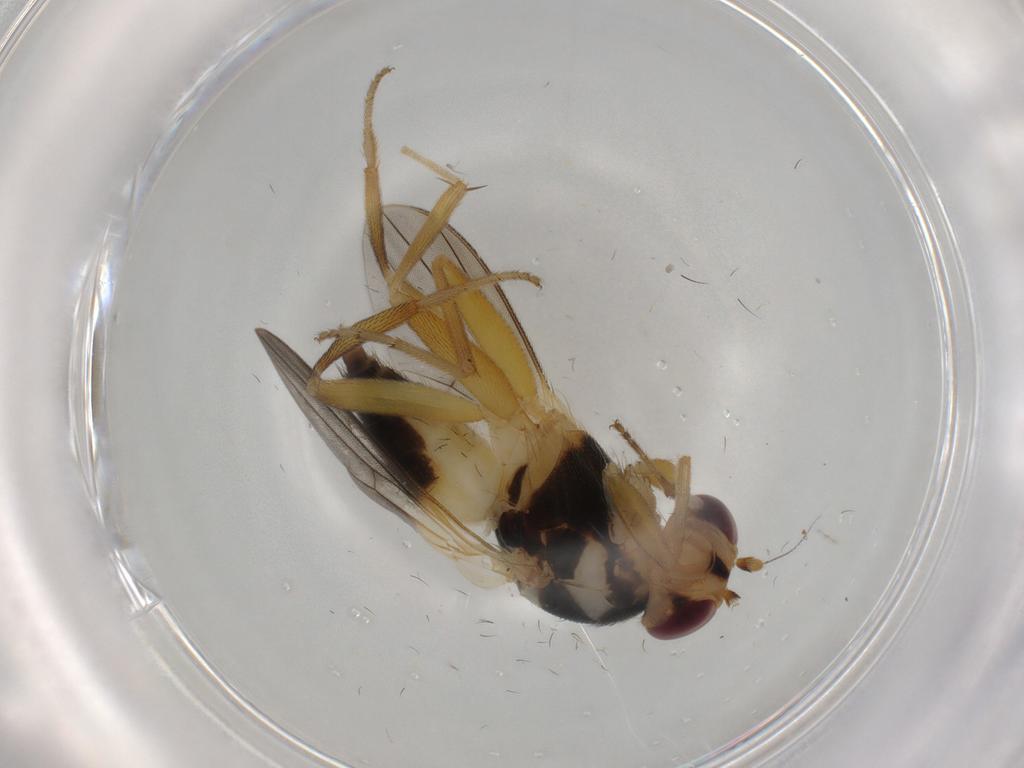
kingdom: Animalia
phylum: Arthropoda
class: Insecta
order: Diptera
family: Clusiidae
